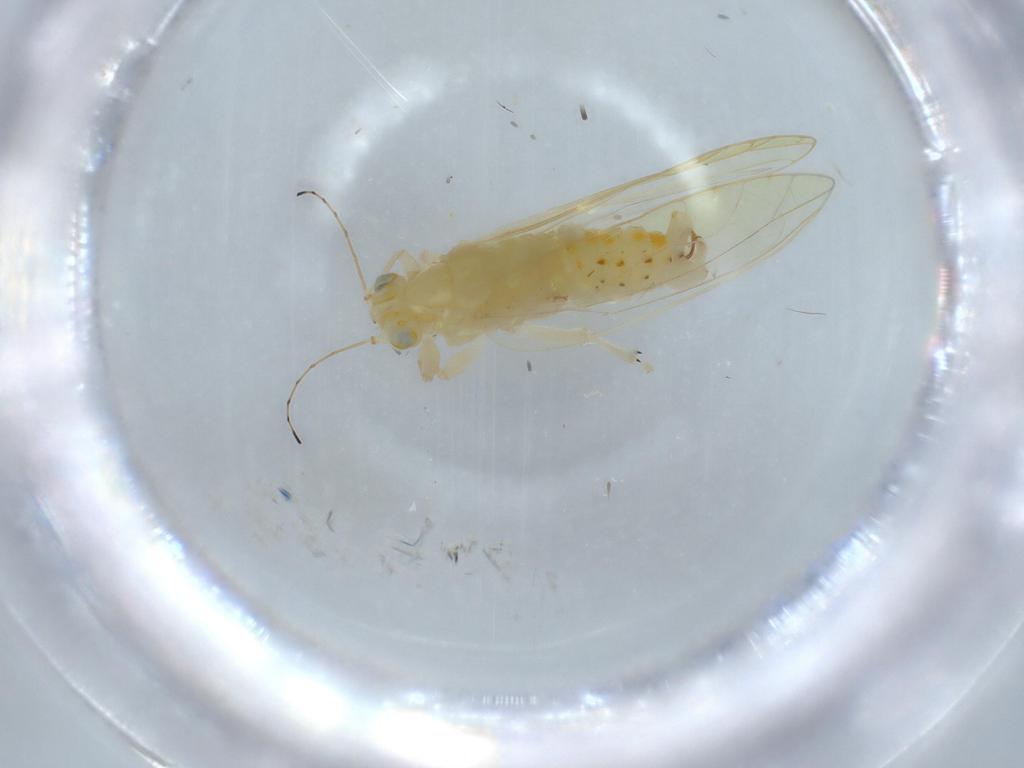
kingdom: Animalia
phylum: Arthropoda
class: Insecta
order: Hemiptera
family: Triozidae
